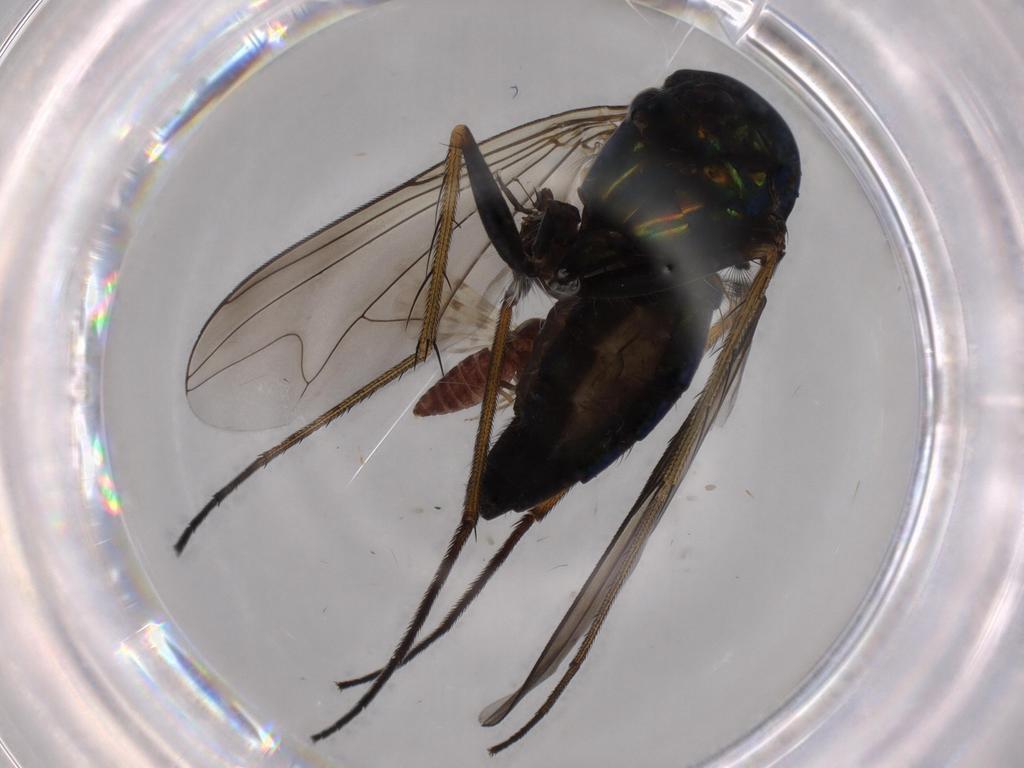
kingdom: Animalia
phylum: Arthropoda
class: Insecta
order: Diptera
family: Dolichopodidae
